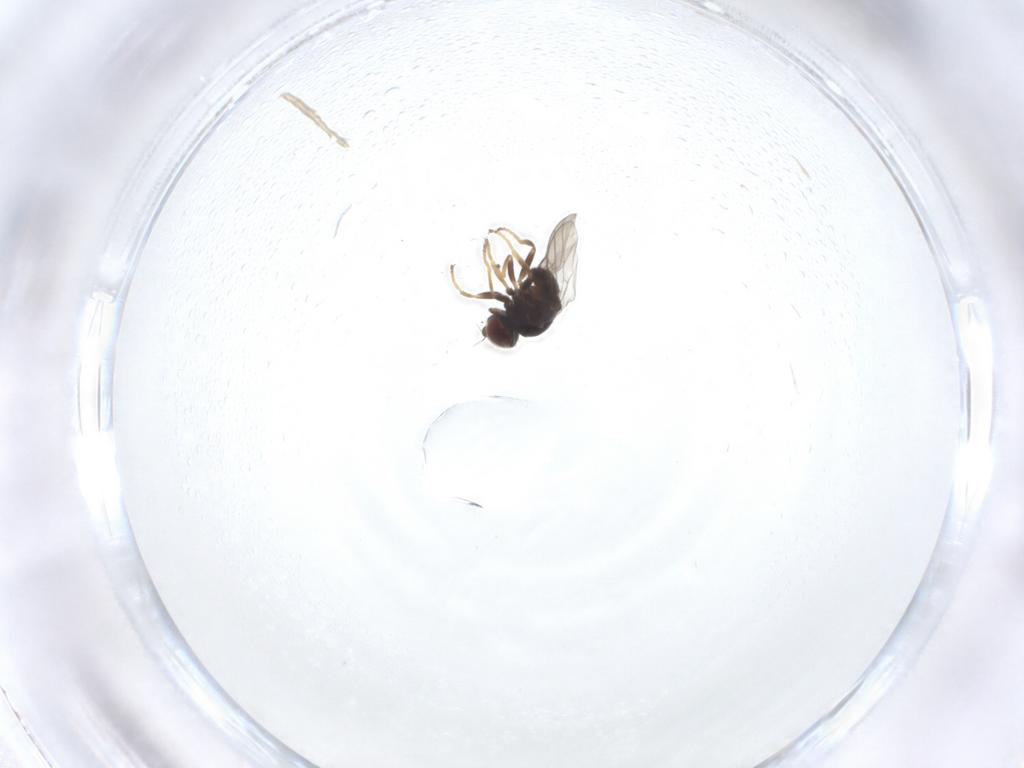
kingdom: Animalia
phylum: Arthropoda
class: Insecta
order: Diptera
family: Chloropidae
